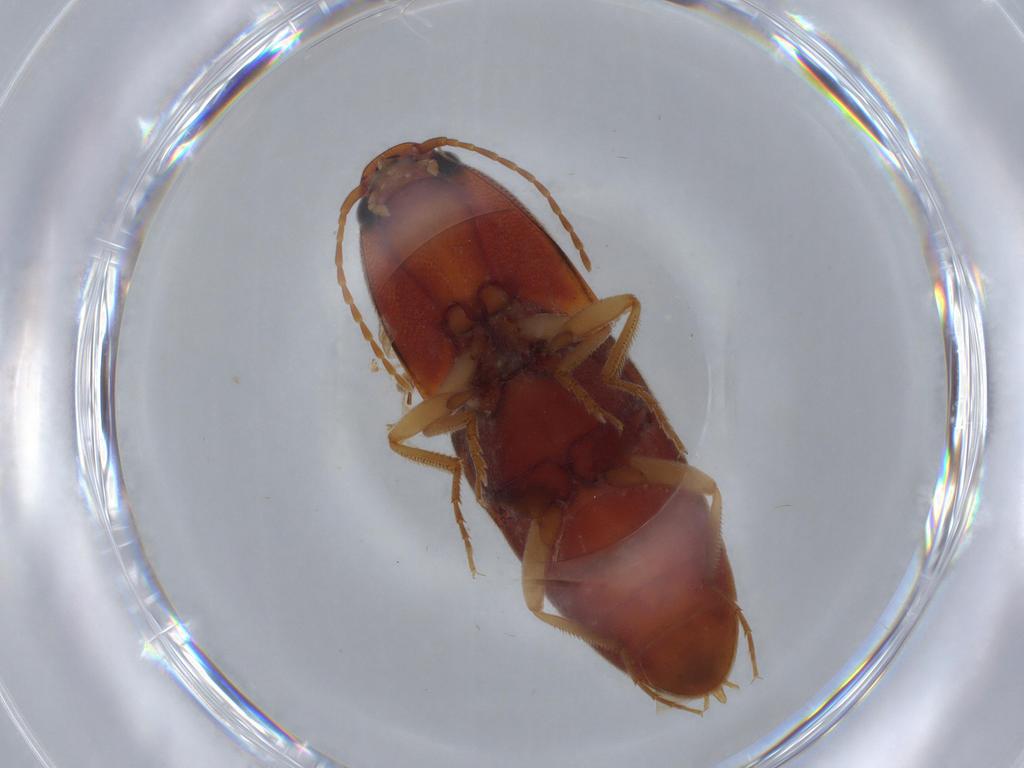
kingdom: Animalia
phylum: Arthropoda
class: Insecta
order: Coleoptera
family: Elateridae
